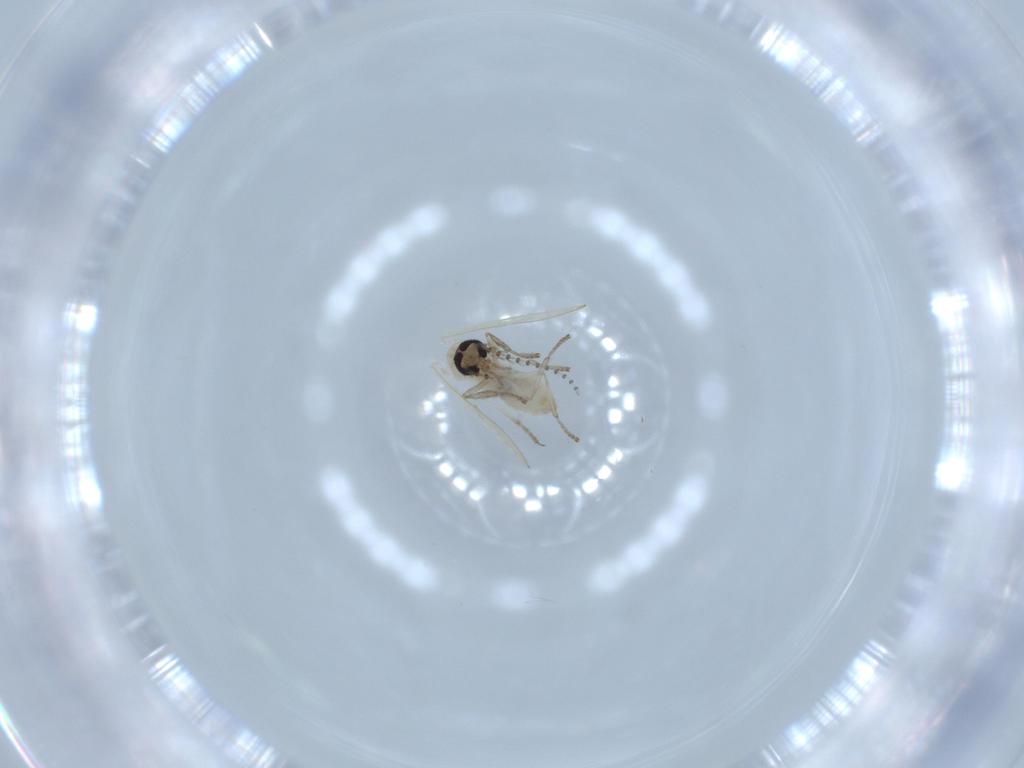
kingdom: Animalia
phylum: Arthropoda
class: Insecta
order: Diptera
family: Psychodidae
